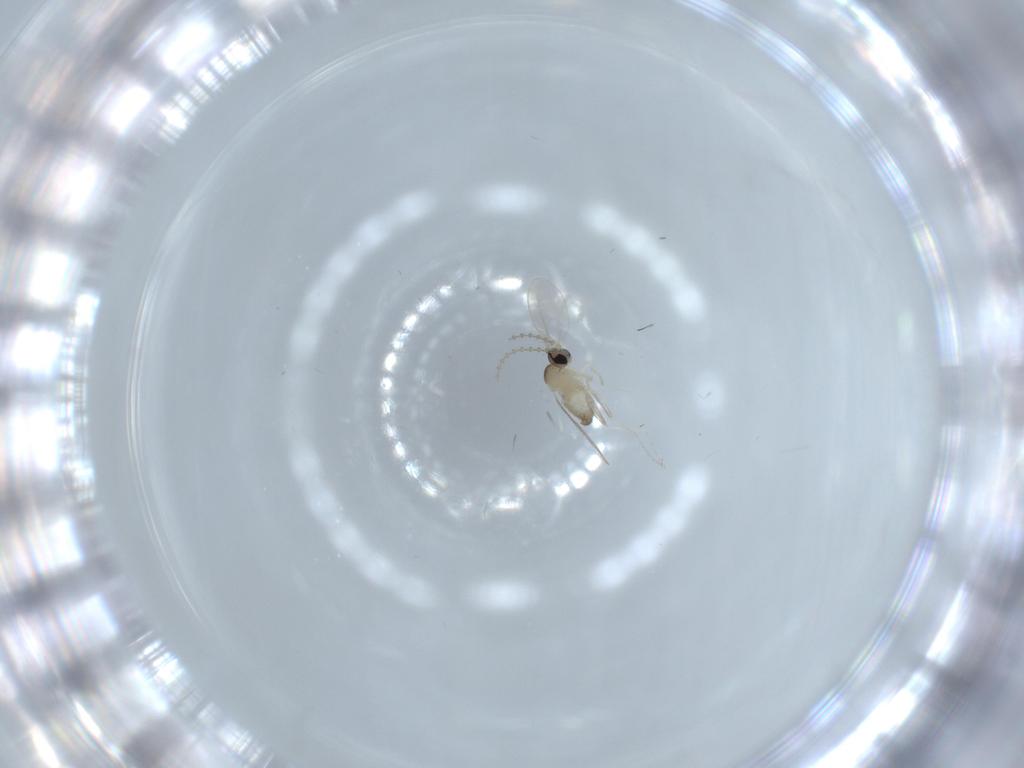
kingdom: Animalia
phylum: Arthropoda
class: Insecta
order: Diptera
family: Cecidomyiidae
